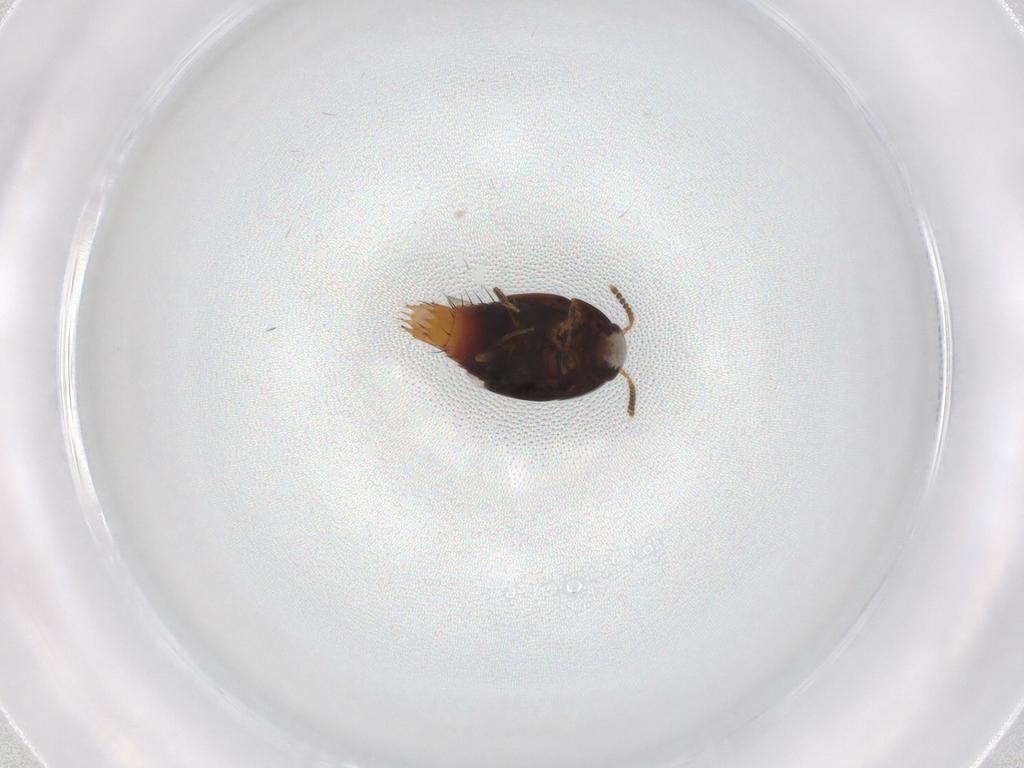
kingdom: Animalia
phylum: Arthropoda
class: Insecta
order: Coleoptera
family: Staphylinidae
